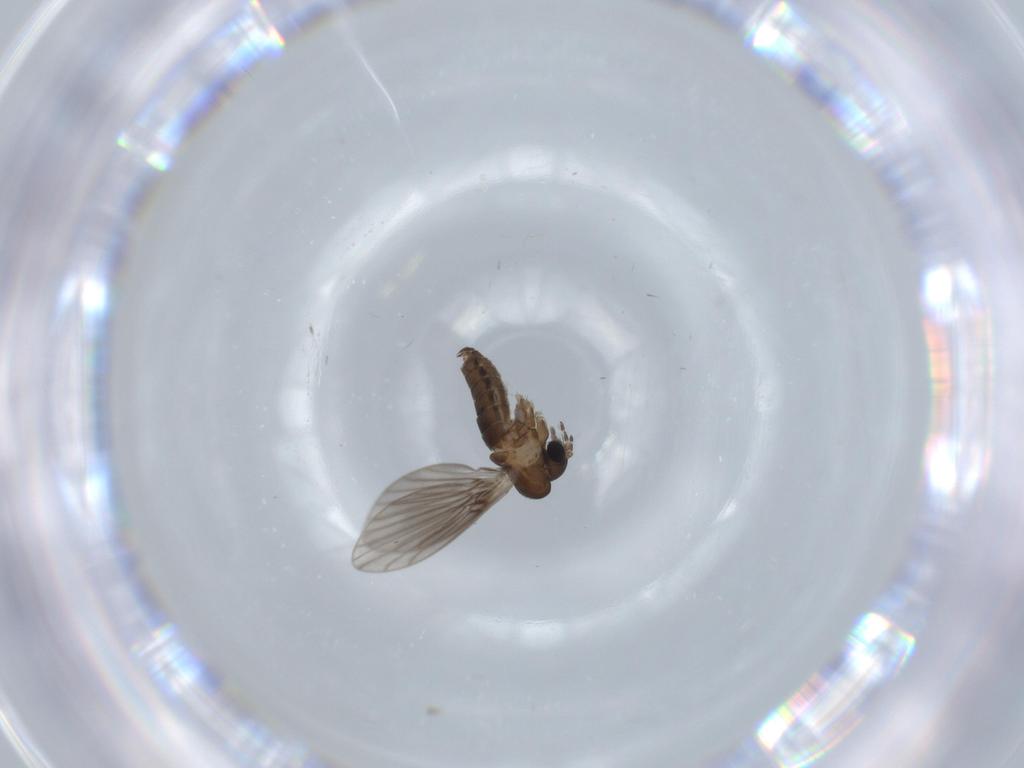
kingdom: Animalia
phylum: Arthropoda
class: Insecta
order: Diptera
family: Psychodidae
